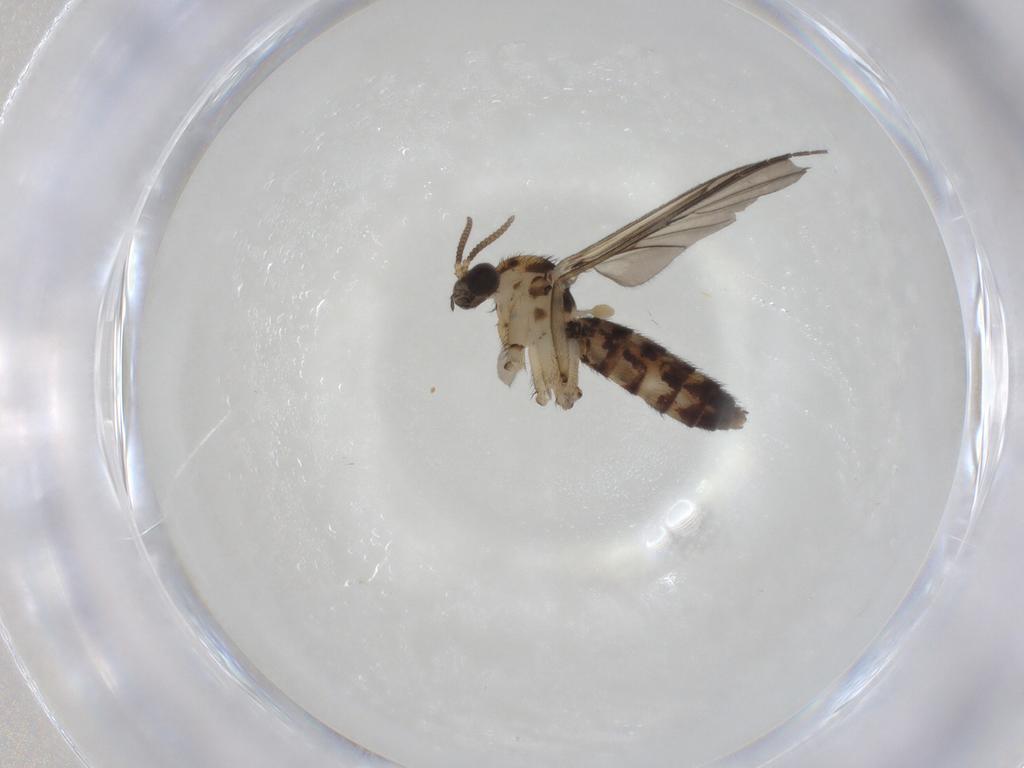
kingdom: Animalia
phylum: Arthropoda
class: Insecta
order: Diptera
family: Keroplatidae
